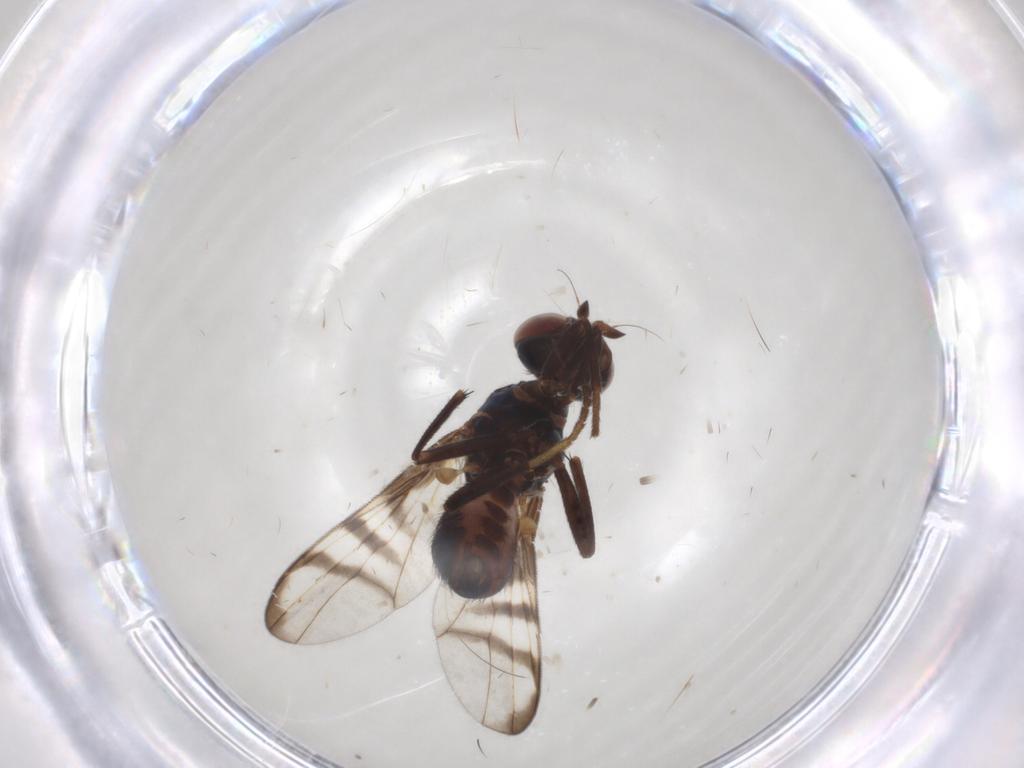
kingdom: Animalia
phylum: Arthropoda
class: Insecta
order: Diptera
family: Platystomatidae
